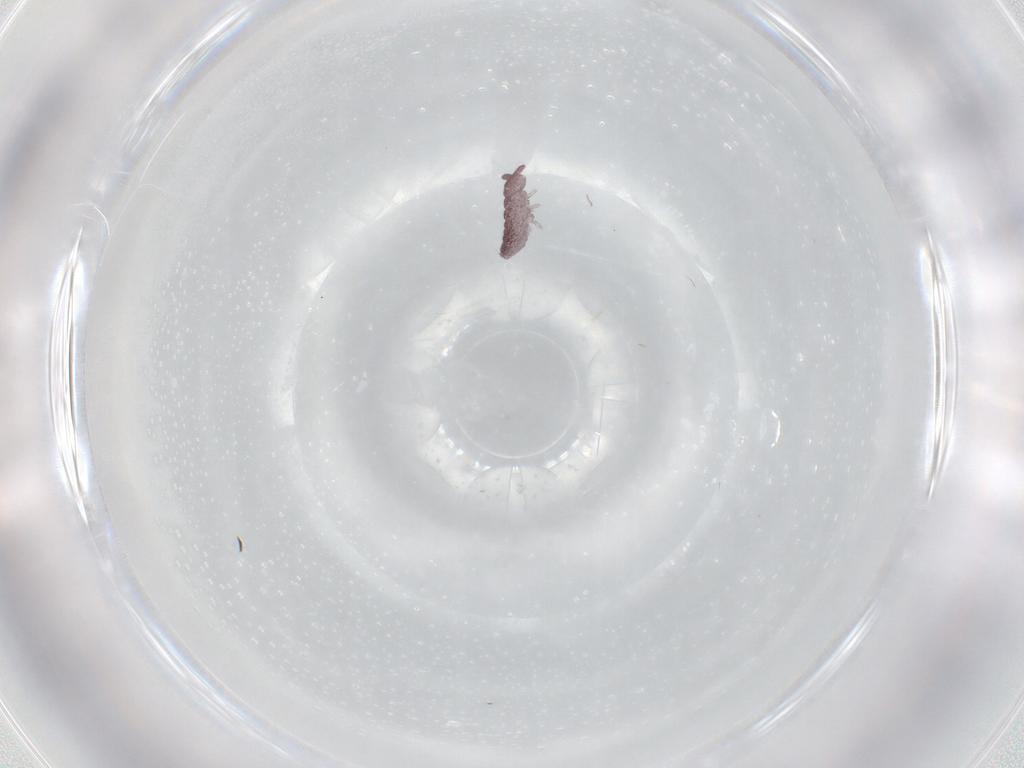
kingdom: Animalia
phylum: Arthropoda
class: Collembola
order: Poduromorpha
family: Hypogastruridae
